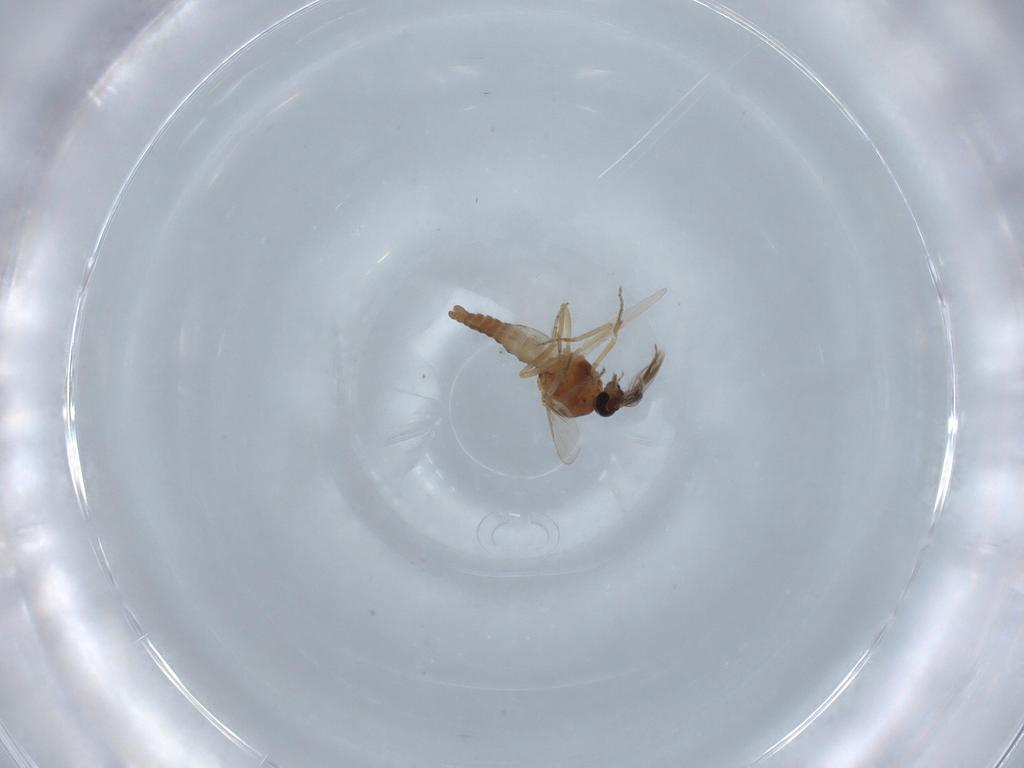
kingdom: Animalia
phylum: Arthropoda
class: Insecta
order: Diptera
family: Ceratopogonidae
